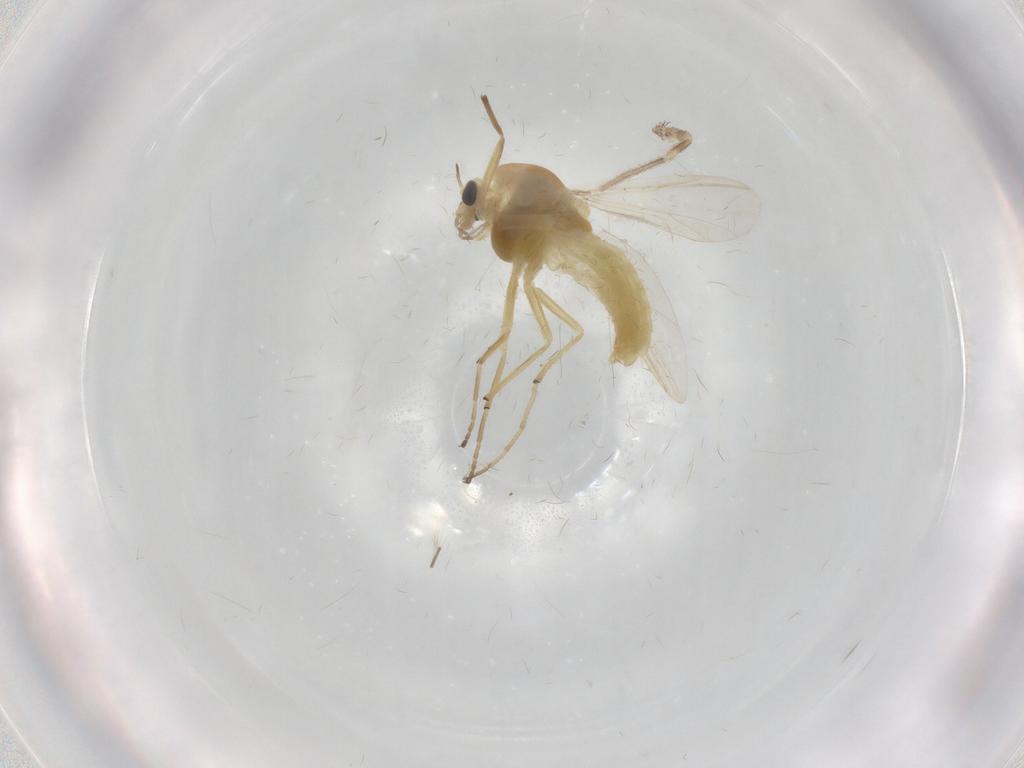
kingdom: Animalia
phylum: Arthropoda
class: Insecta
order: Diptera
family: Chironomidae
